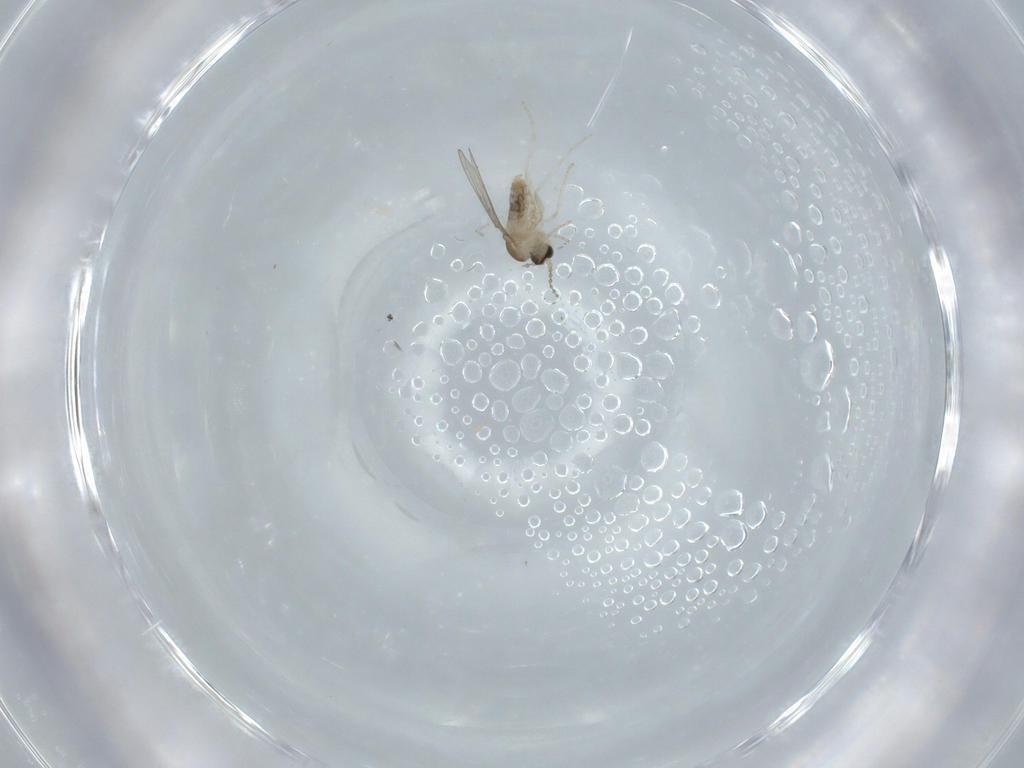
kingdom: Animalia
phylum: Arthropoda
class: Insecta
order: Diptera
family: Cecidomyiidae
